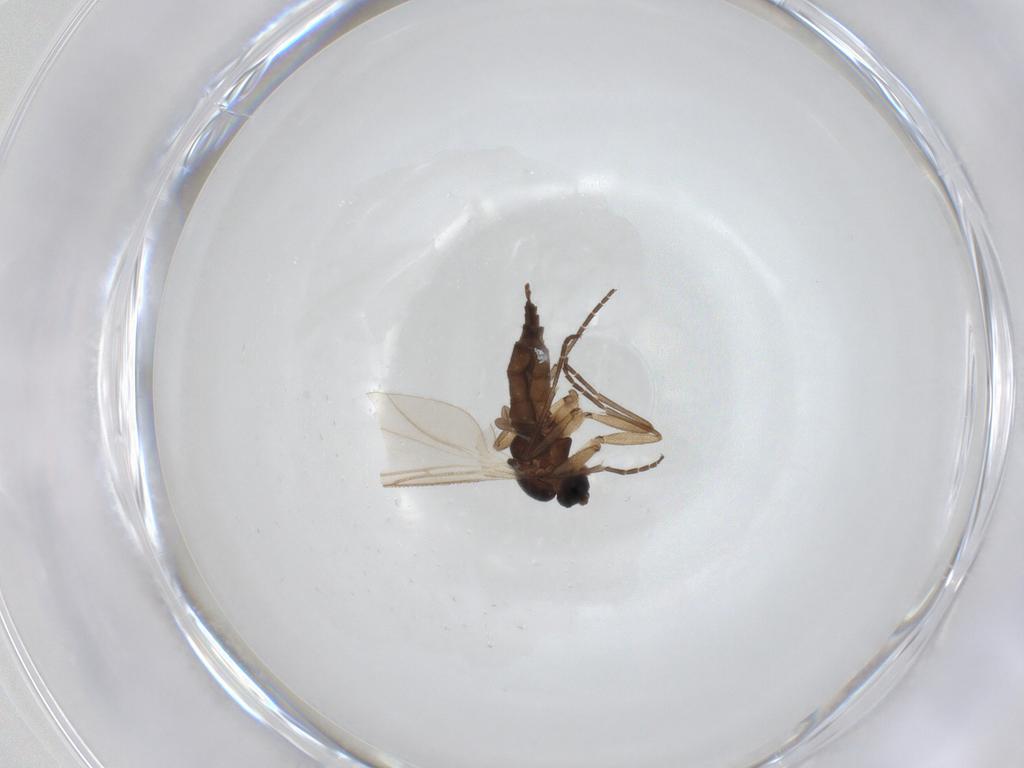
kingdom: Animalia
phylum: Arthropoda
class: Insecta
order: Diptera
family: Sciaridae
